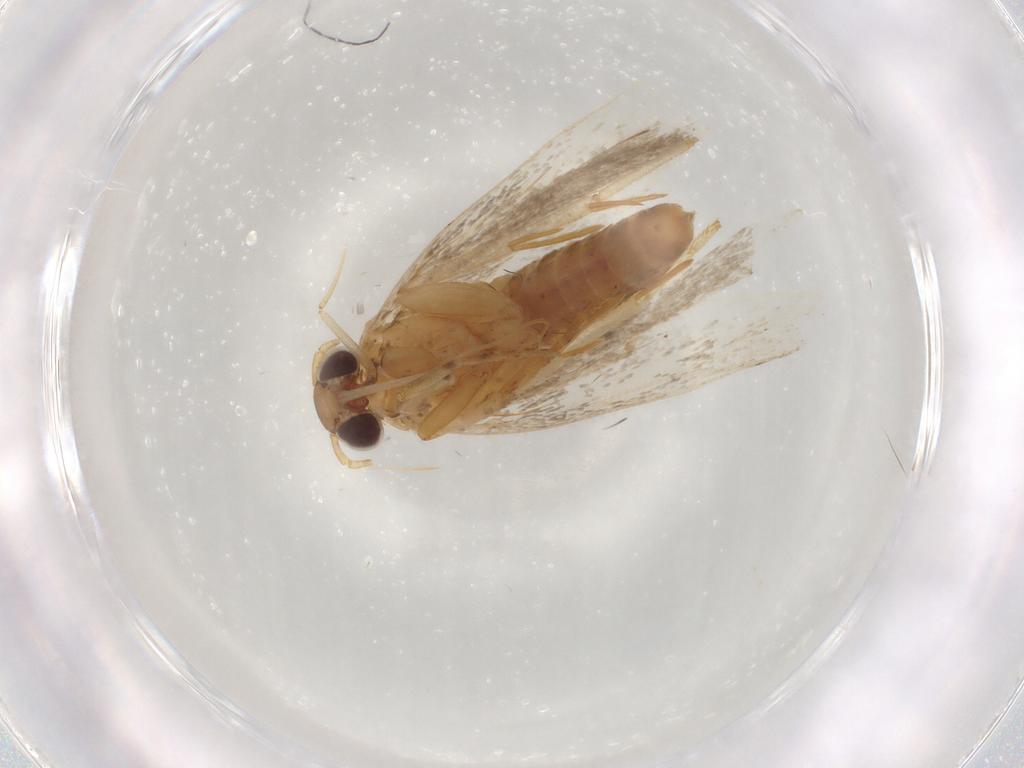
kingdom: Animalia
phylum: Arthropoda
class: Insecta
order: Lepidoptera
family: Gelechiidae
